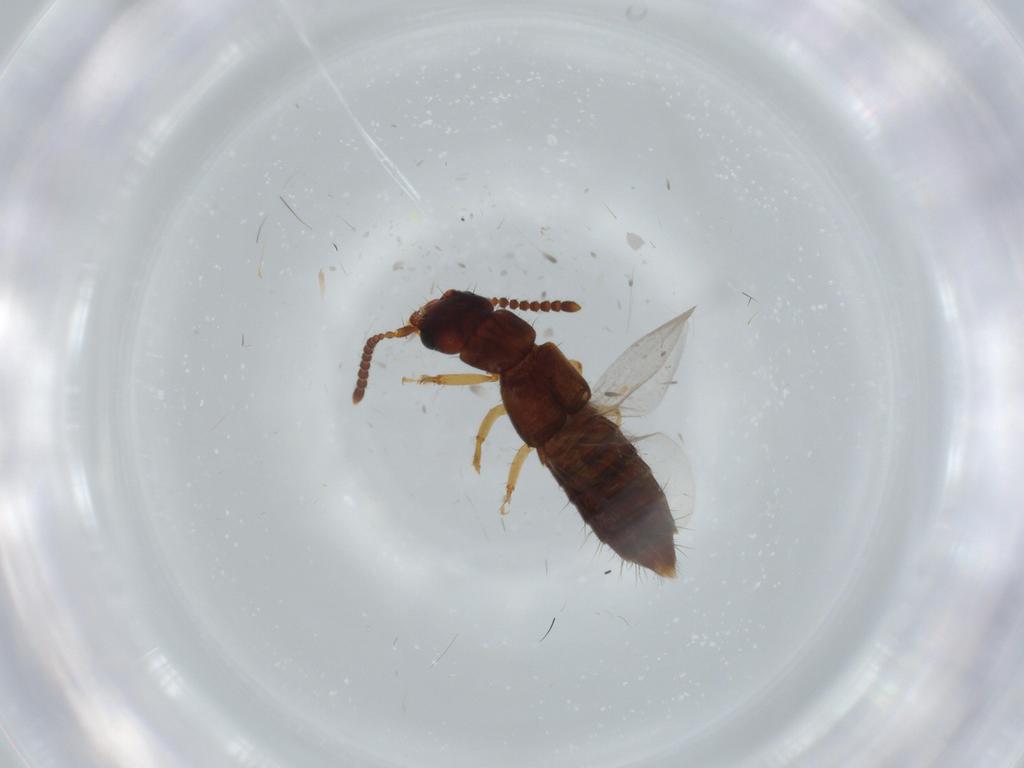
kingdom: Animalia
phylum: Arthropoda
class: Insecta
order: Coleoptera
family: Staphylinidae
